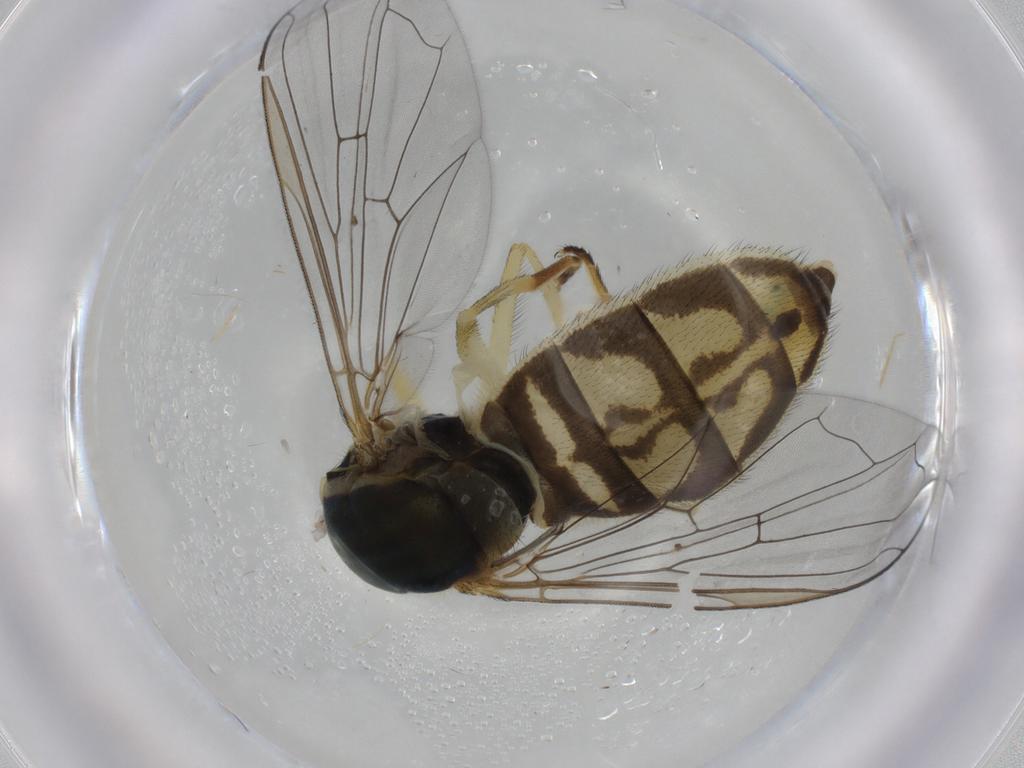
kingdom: Animalia
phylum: Arthropoda
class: Insecta
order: Diptera
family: Syrphidae
